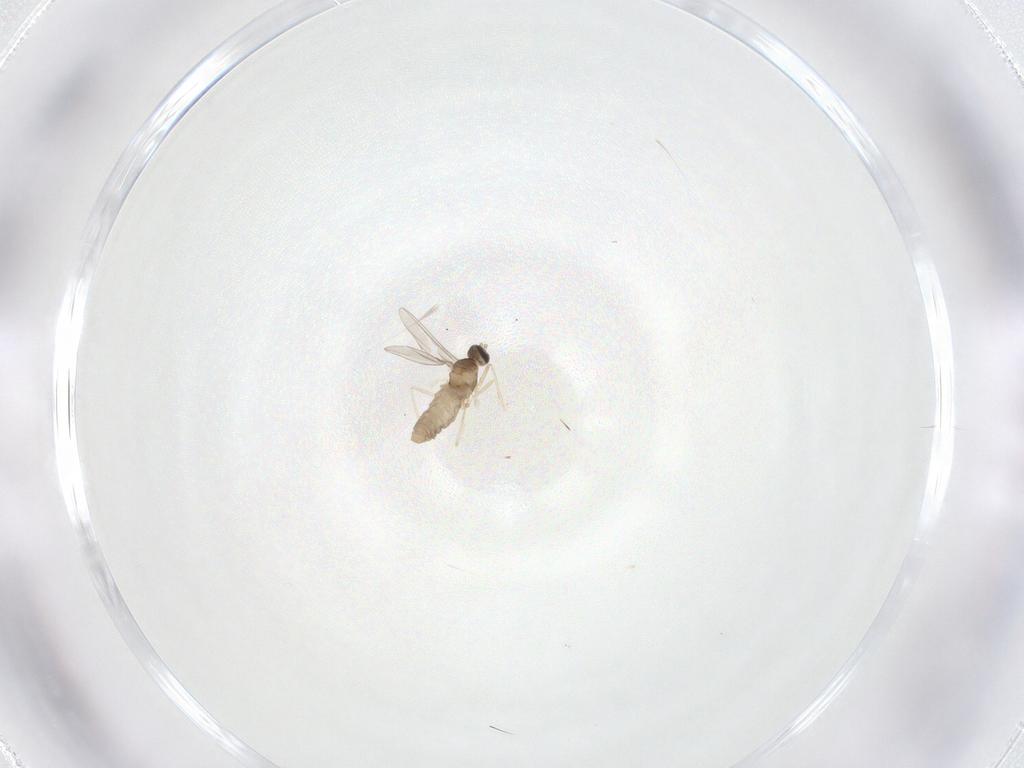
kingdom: Animalia
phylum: Arthropoda
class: Insecta
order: Diptera
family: Cecidomyiidae
